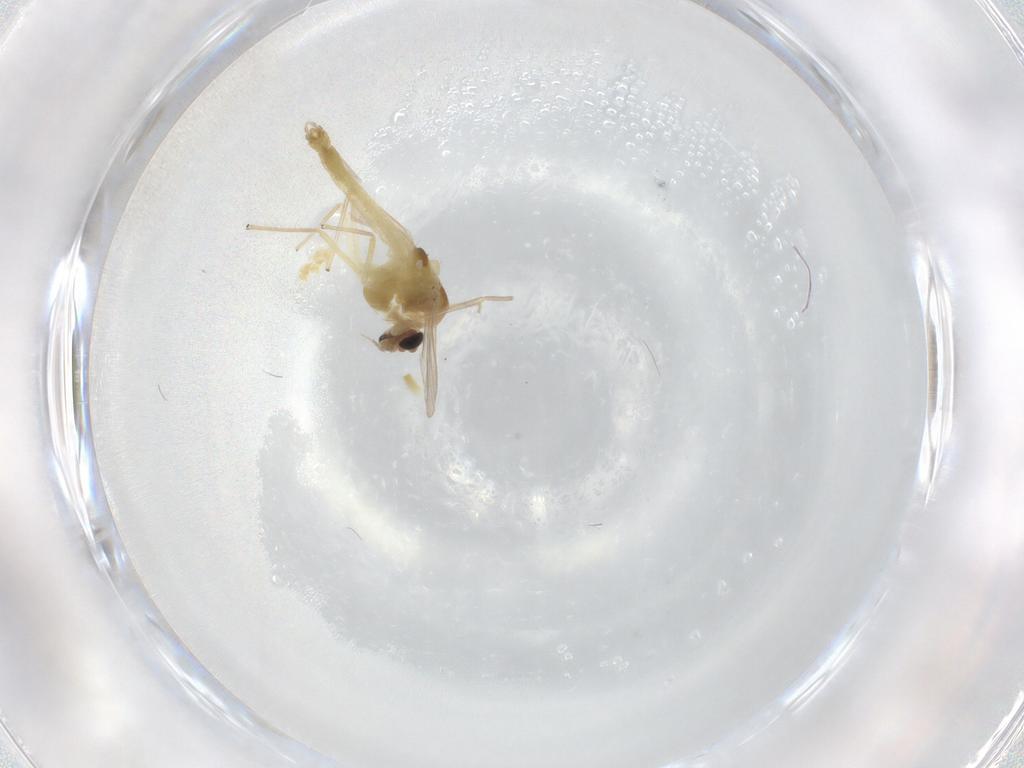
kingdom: Animalia
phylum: Arthropoda
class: Insecta
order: Diptera
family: Chironomidae
